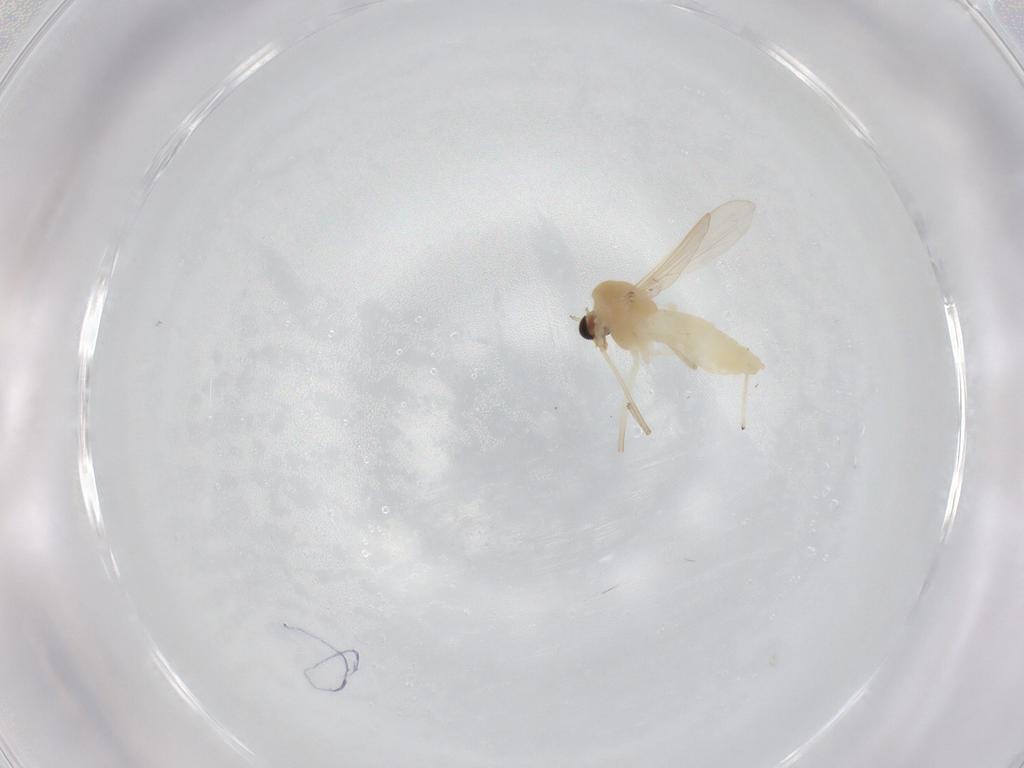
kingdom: Animalia
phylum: Arthropoda
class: Insecta
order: Diptera
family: Chironomidae
